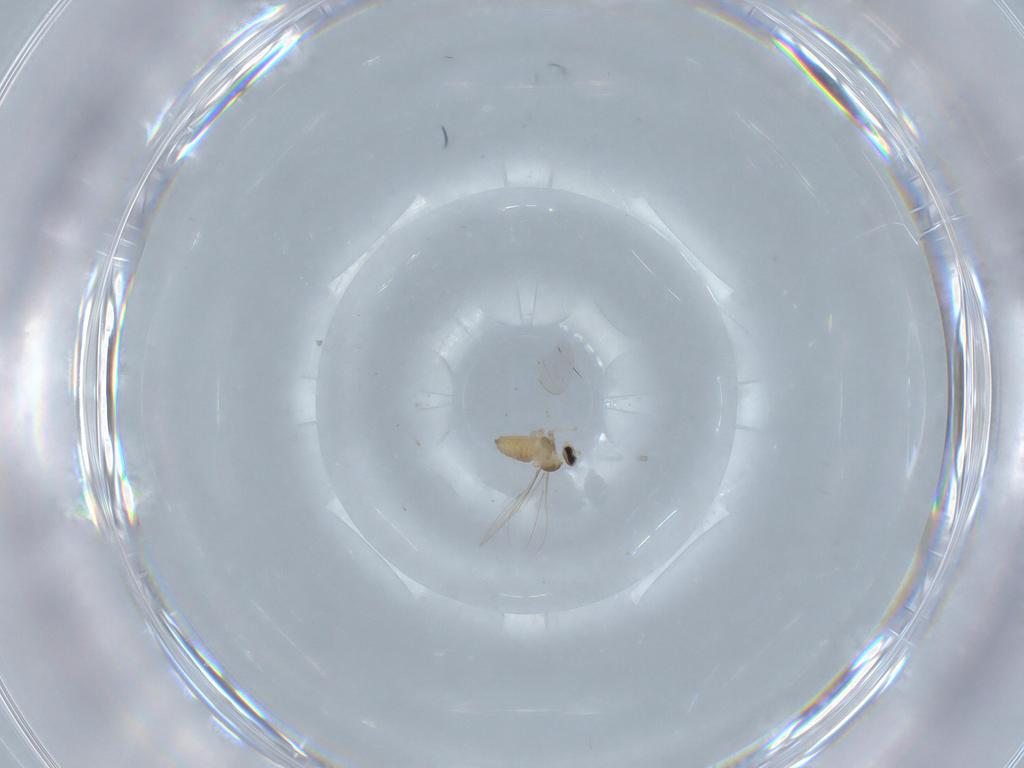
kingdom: Animalia
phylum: Arthropoda
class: Insecta
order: Diptera
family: Cecidomyiidae
